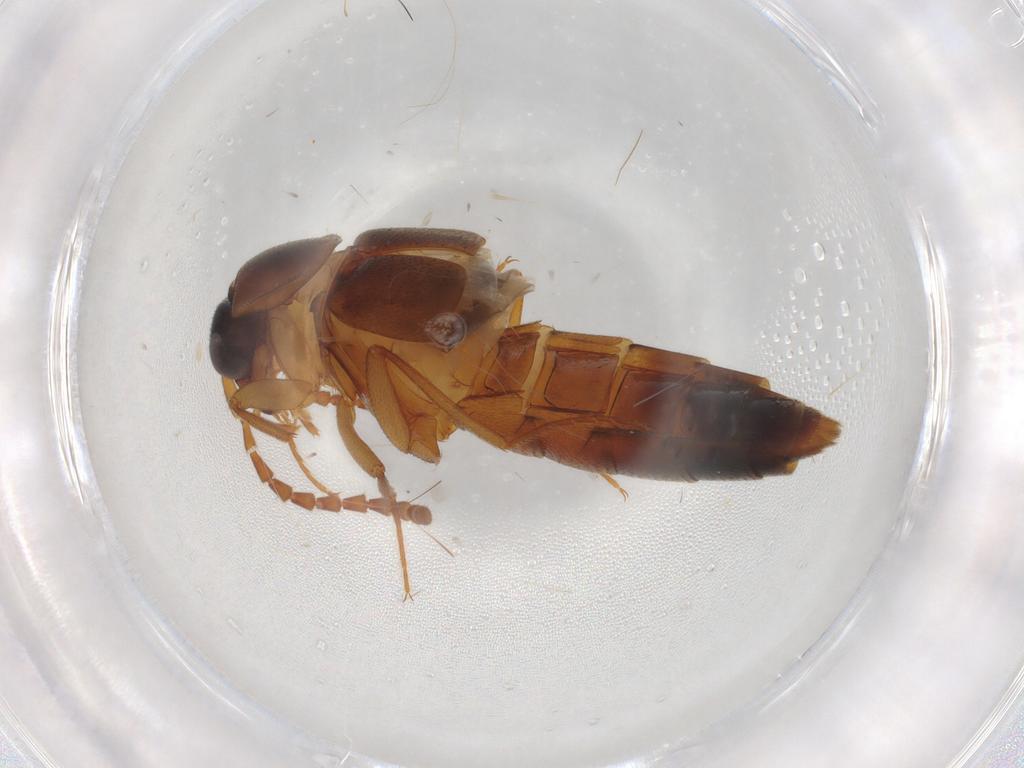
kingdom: Animalia
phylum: Arthropoda
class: Insecta
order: Coleoptera
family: Hydrophilidae
